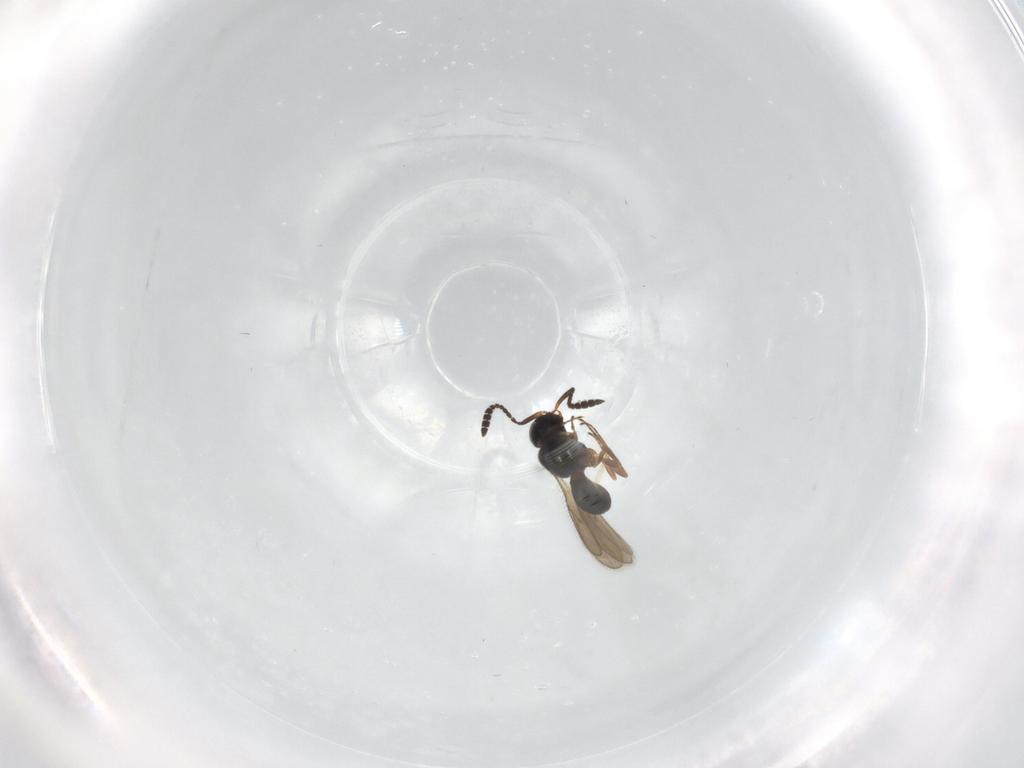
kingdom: Animalia
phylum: Arthropoda
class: Insecta
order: Hymenoptera
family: Scelionidae
